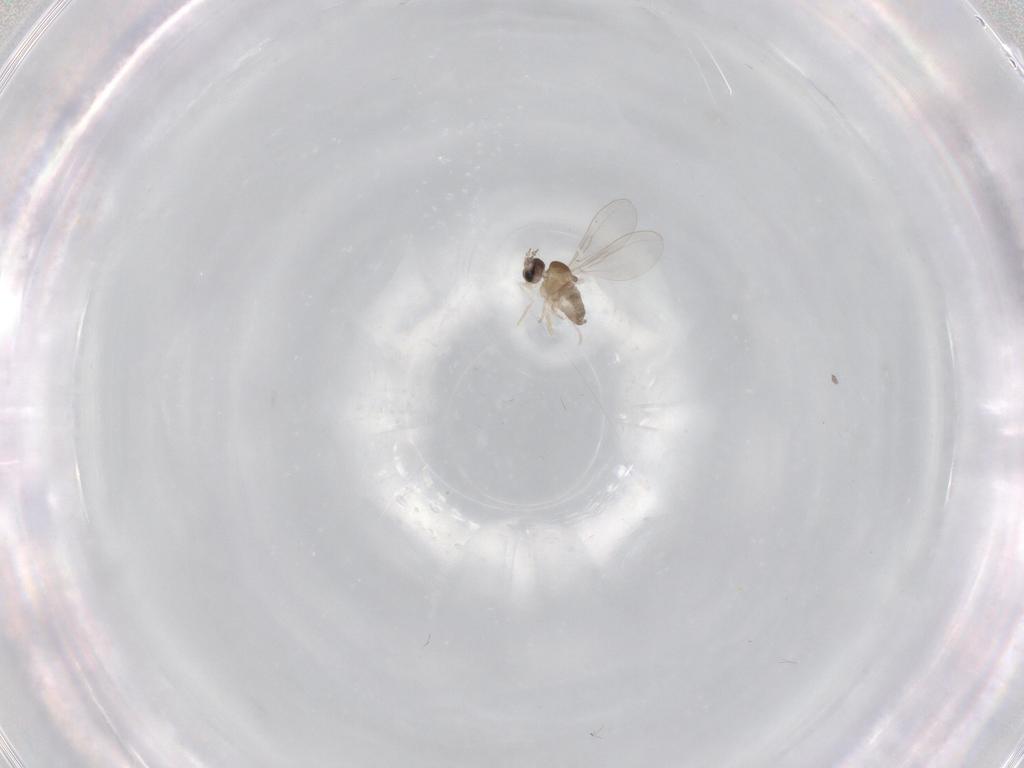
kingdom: Animalia
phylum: Arthropoda
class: Insecta
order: Diptera
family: Cecidomyiidae
